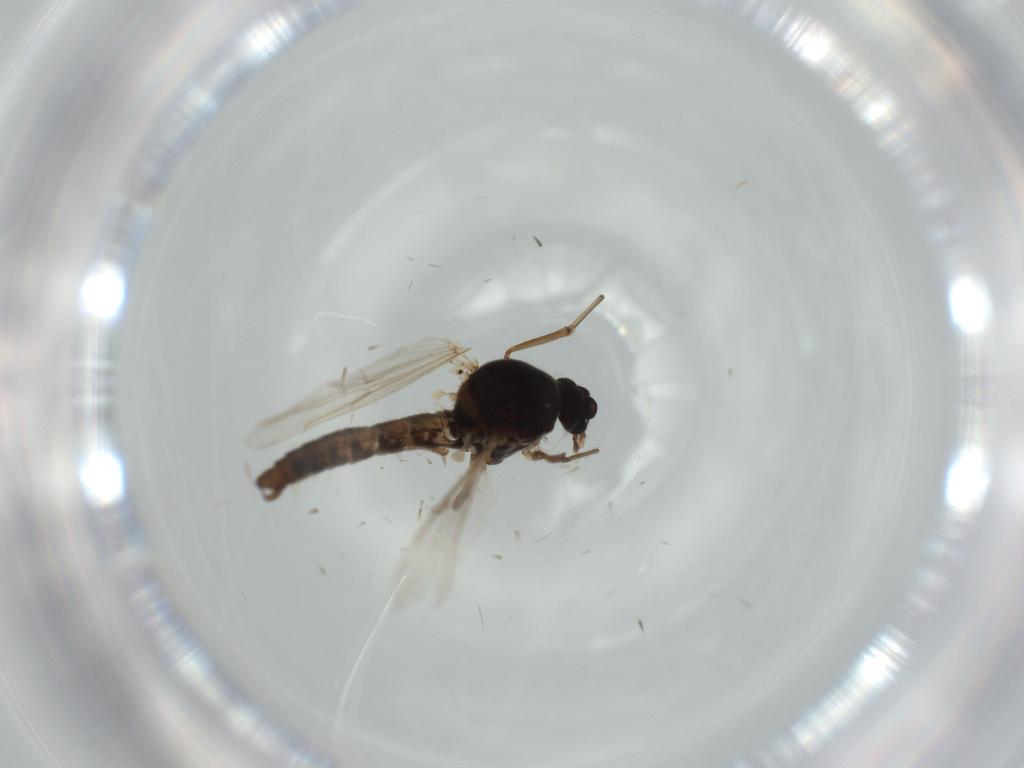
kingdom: Animalia
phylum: Arthropoda
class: Insecta
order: Diptera
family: Ceratopogonidae
